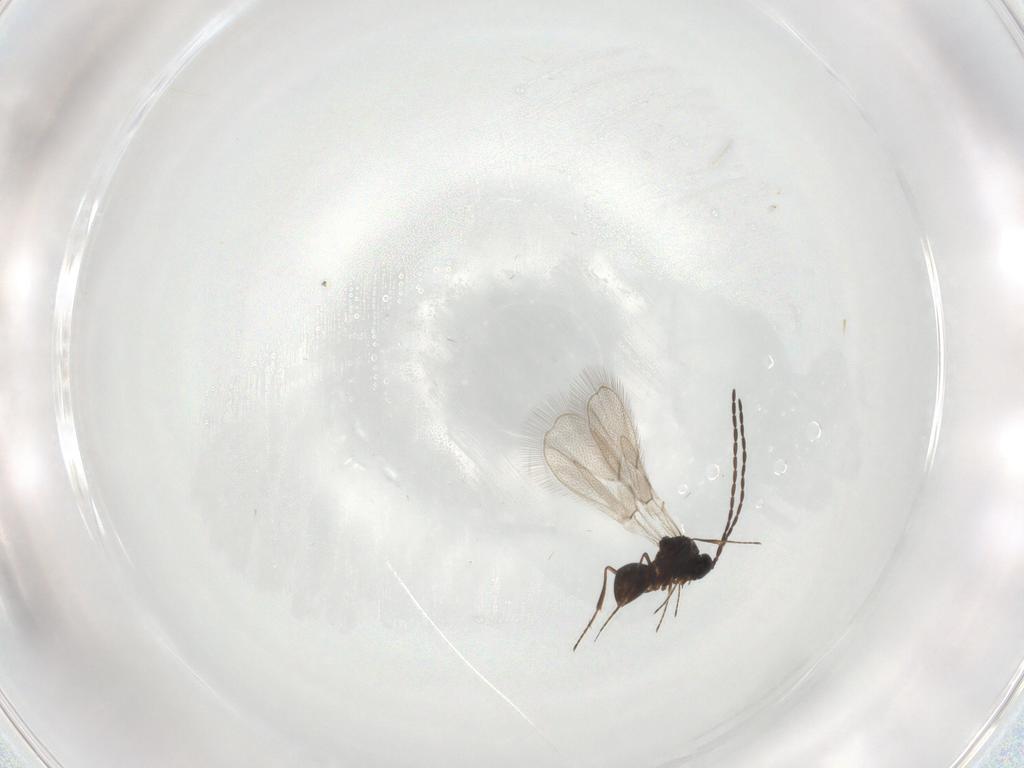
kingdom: Animalia
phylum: Arthropoda
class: Insecta
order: Hymenoptera
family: Figitidae
